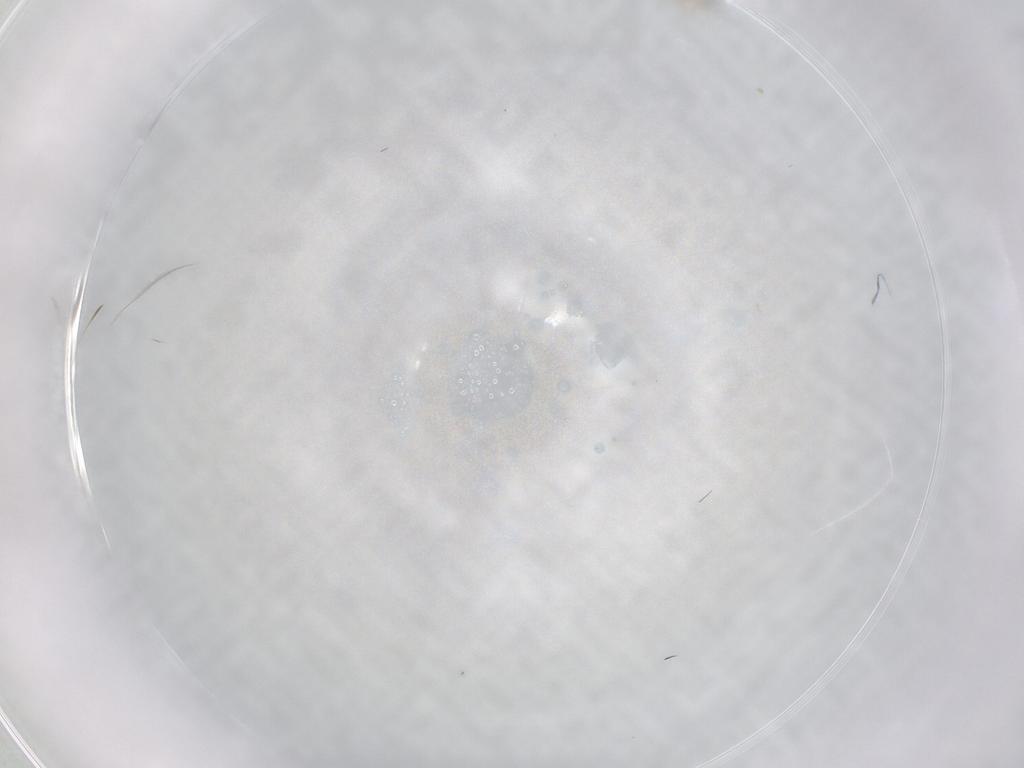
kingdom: Animalia
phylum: Arthropoda
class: Insecta
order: Diptera
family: Cecidomyiidae
